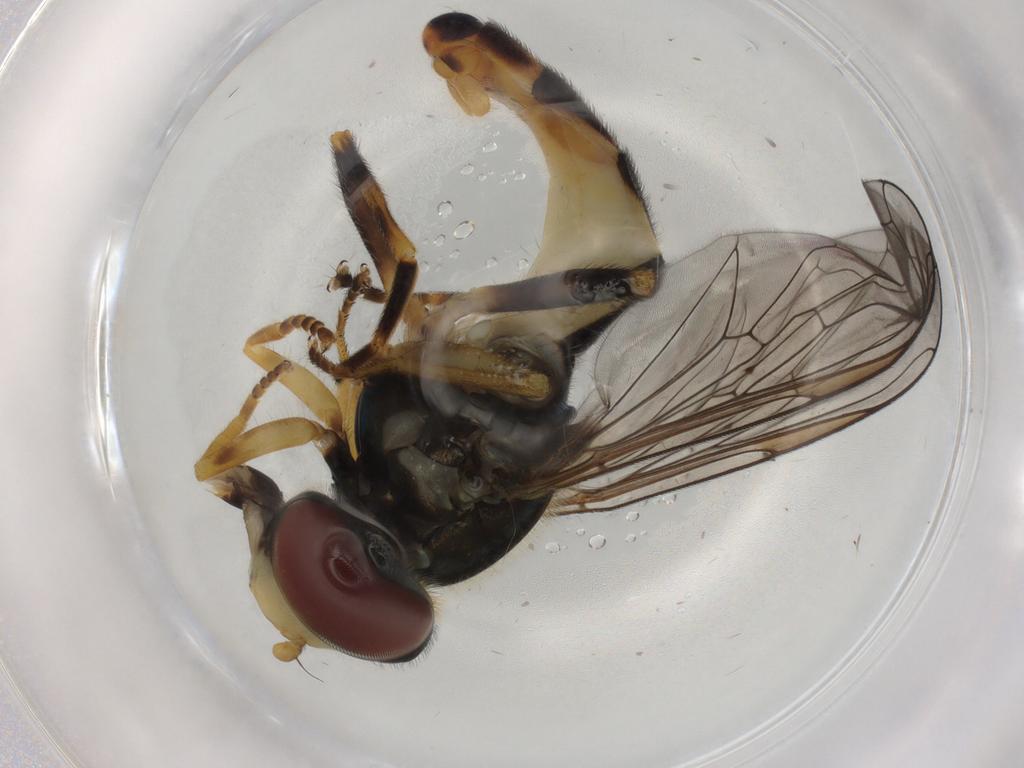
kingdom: Animalia
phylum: Arthropoda
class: Insecta
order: Diptera
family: Syrphidae
